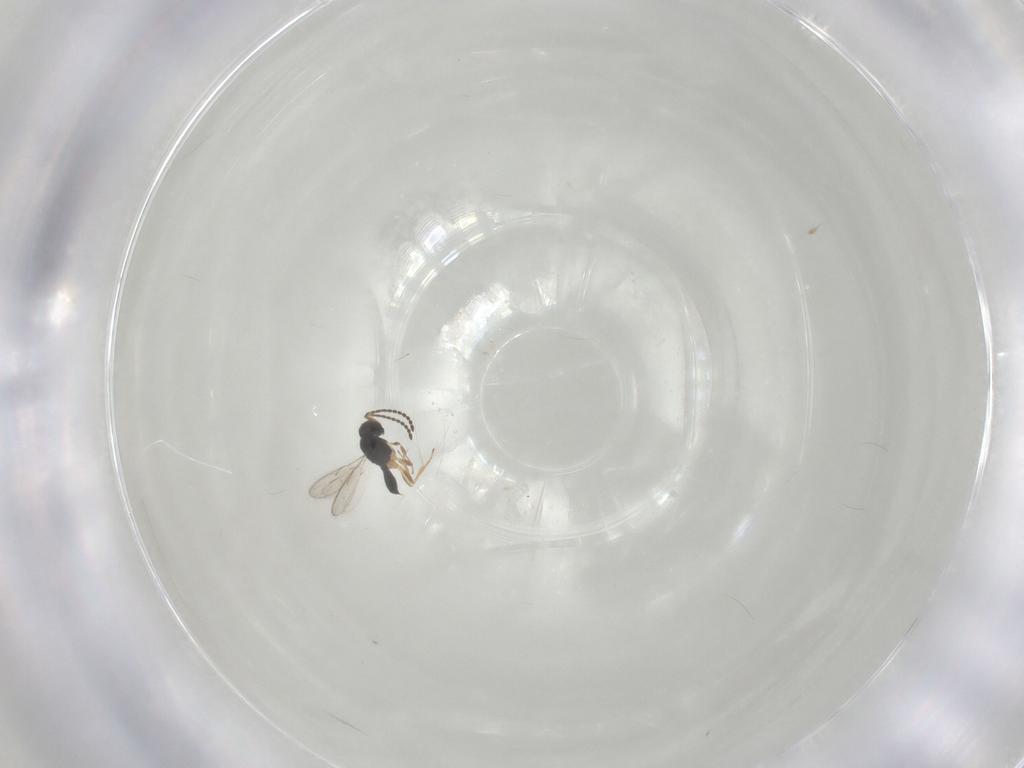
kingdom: Animalia
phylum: Arthropoda
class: Insecta
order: Hymenoptera
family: Braconidae
